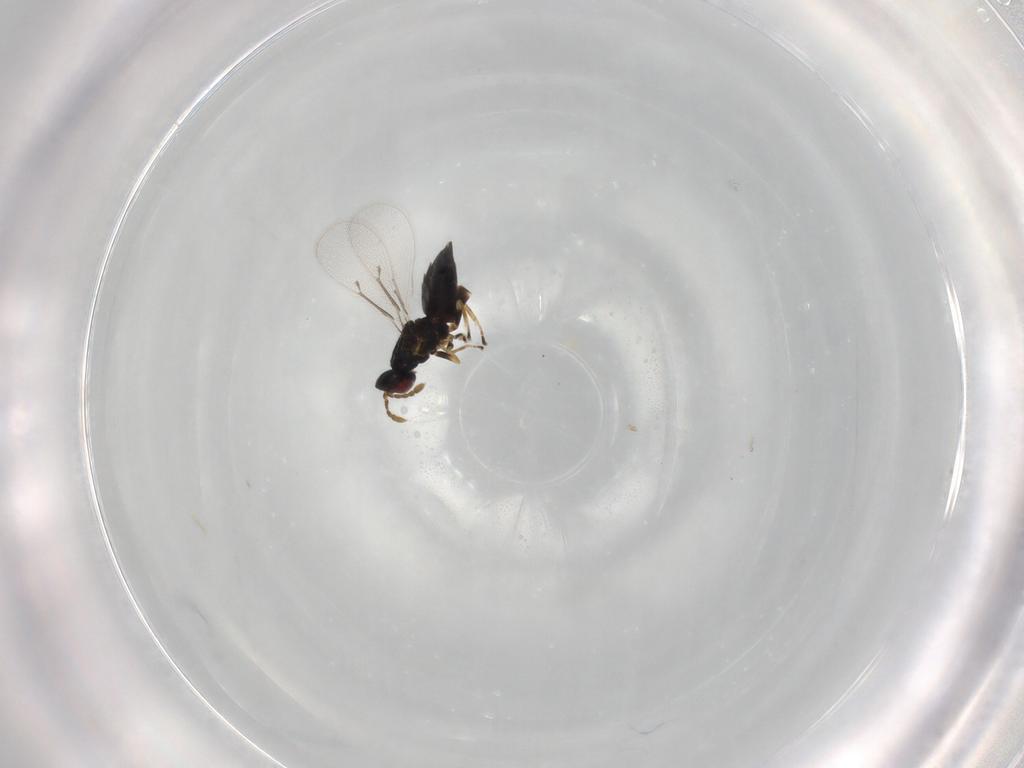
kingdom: Animalia
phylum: Arthropoda
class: Insecta
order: Hymenoptera
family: Eulophidae
